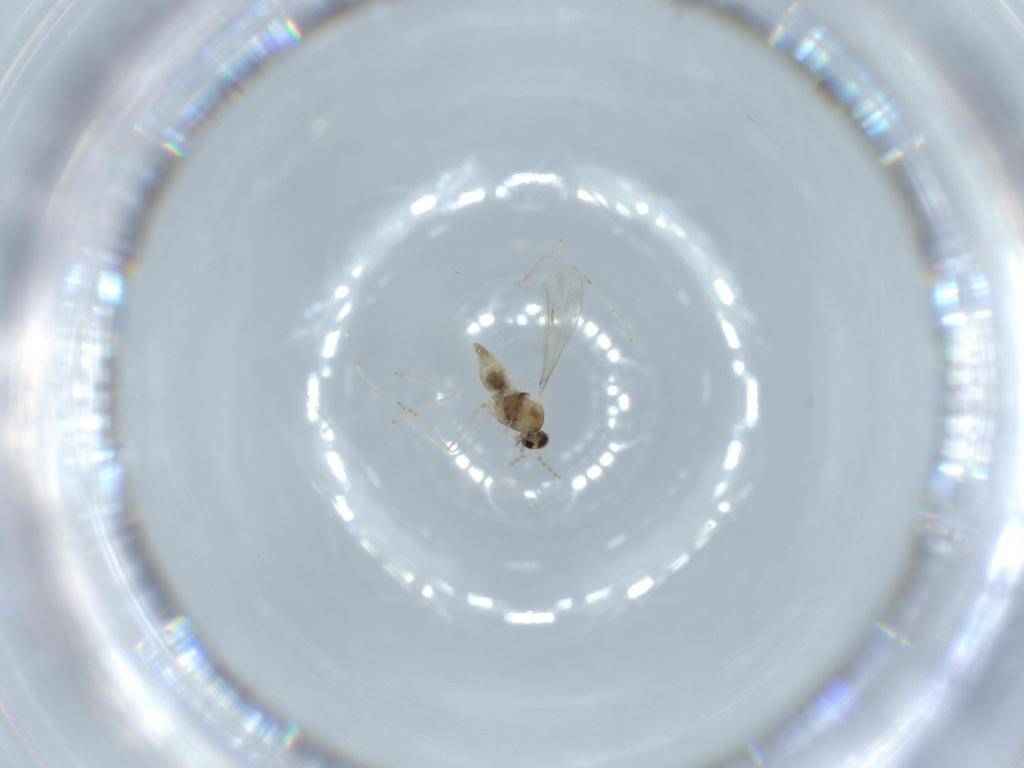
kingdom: Animalia
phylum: Arthropoda
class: Insecta
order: Diptera
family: Cecidomyiidae
